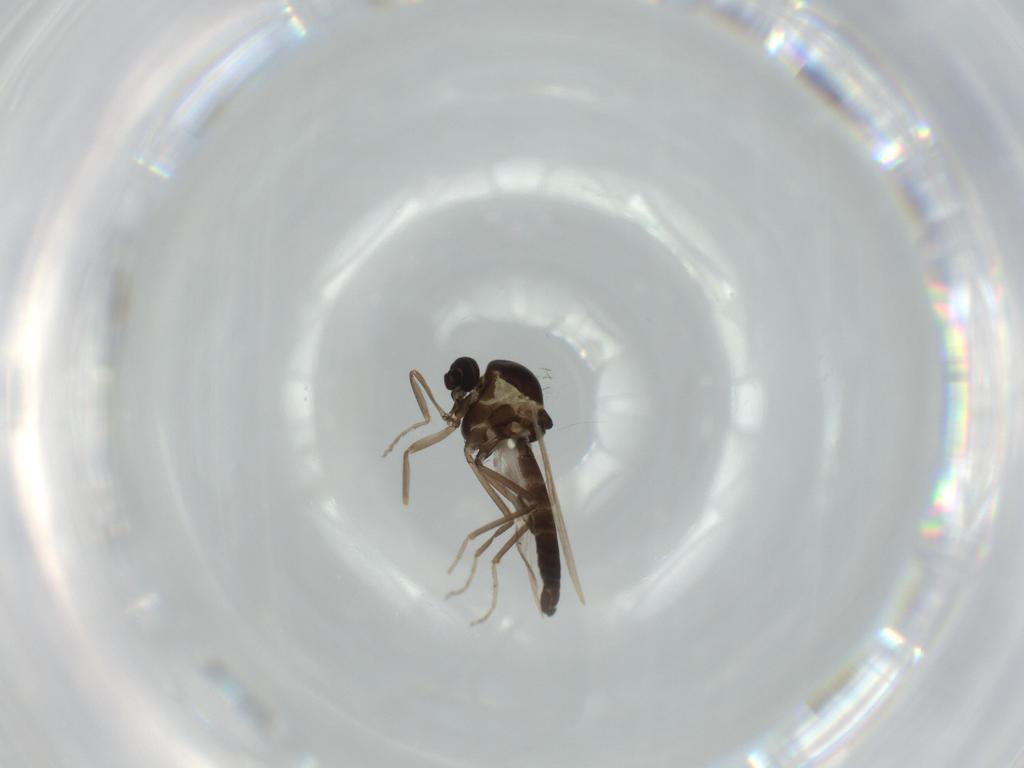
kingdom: Animalia
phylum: Arthropoda
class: Insecta
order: Diptera
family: Ceratopogonidae
